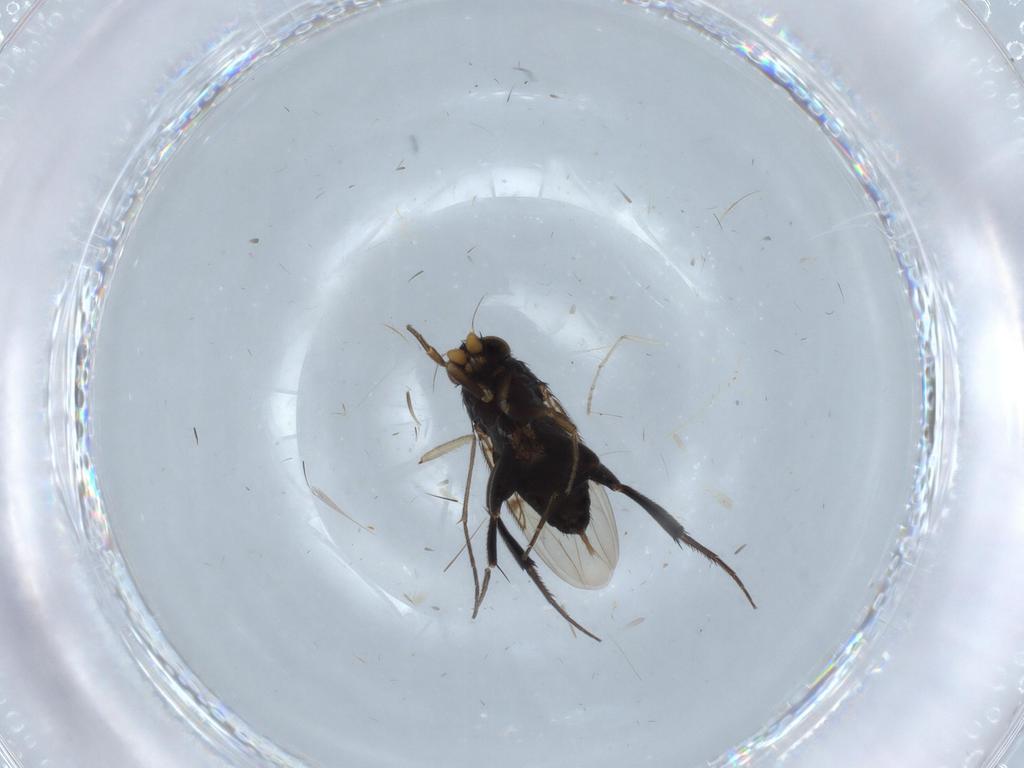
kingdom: Animalia
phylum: Arthropoda
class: Insecta
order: Diptera
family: Phoridae
